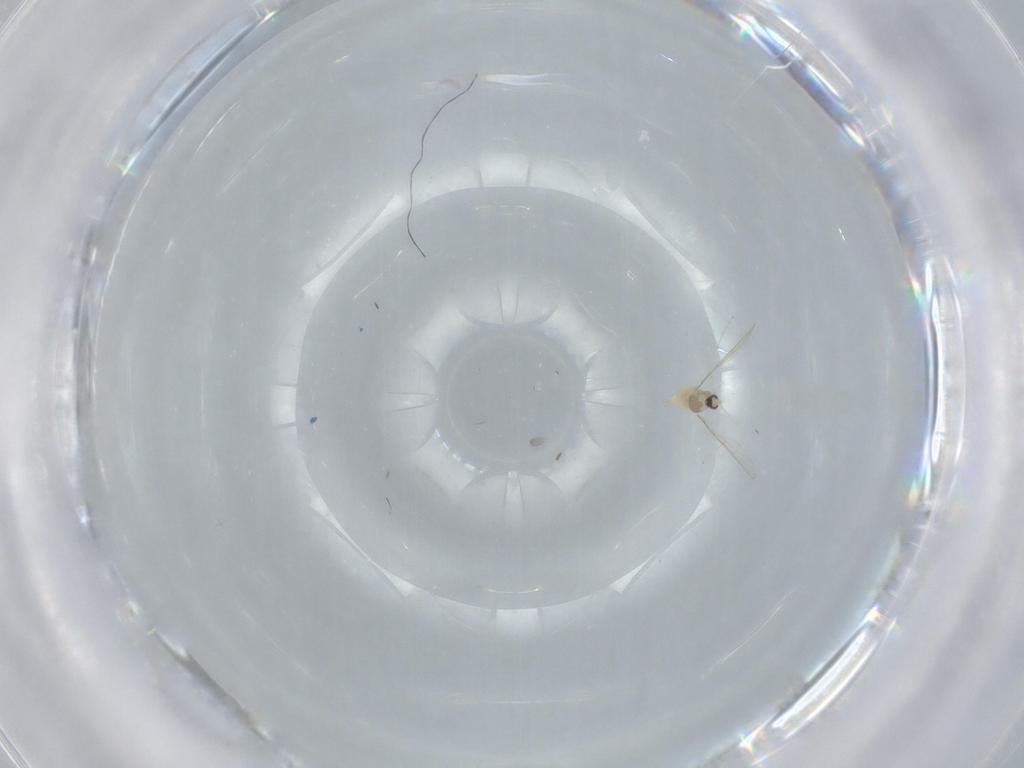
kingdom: Animalia
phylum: Arthropoda
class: Insecta
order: Diptera
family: Cecidomyiidae
